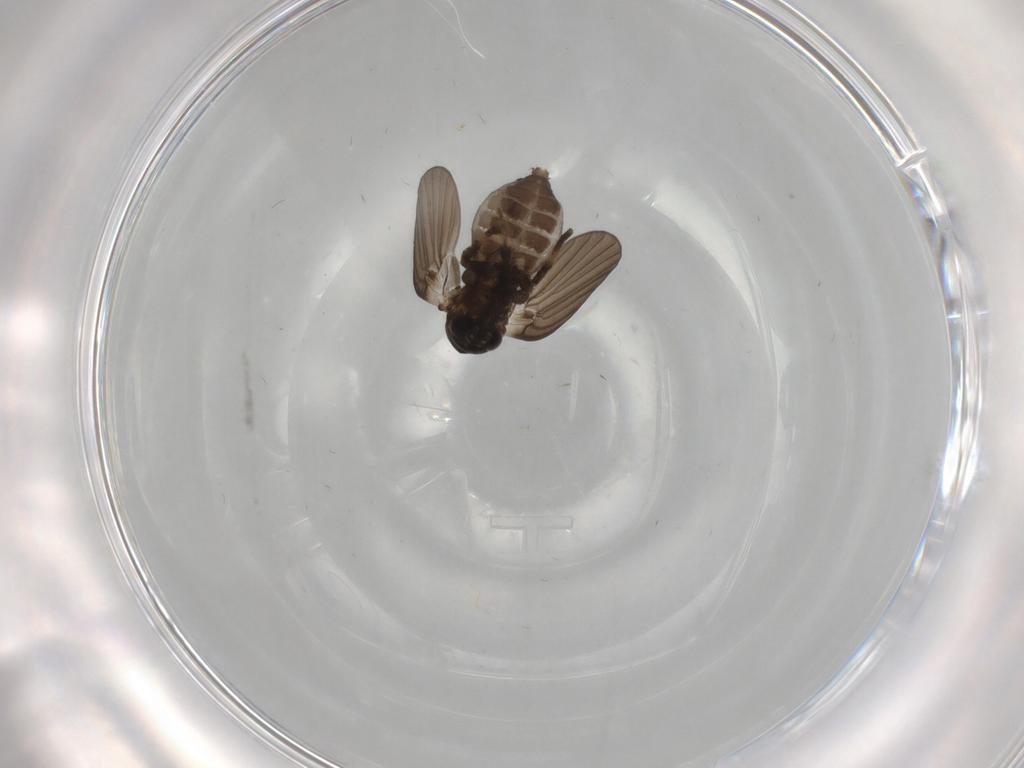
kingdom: Animalia
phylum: Arthropoda
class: Insecta
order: Diptera
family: Psychodidae
